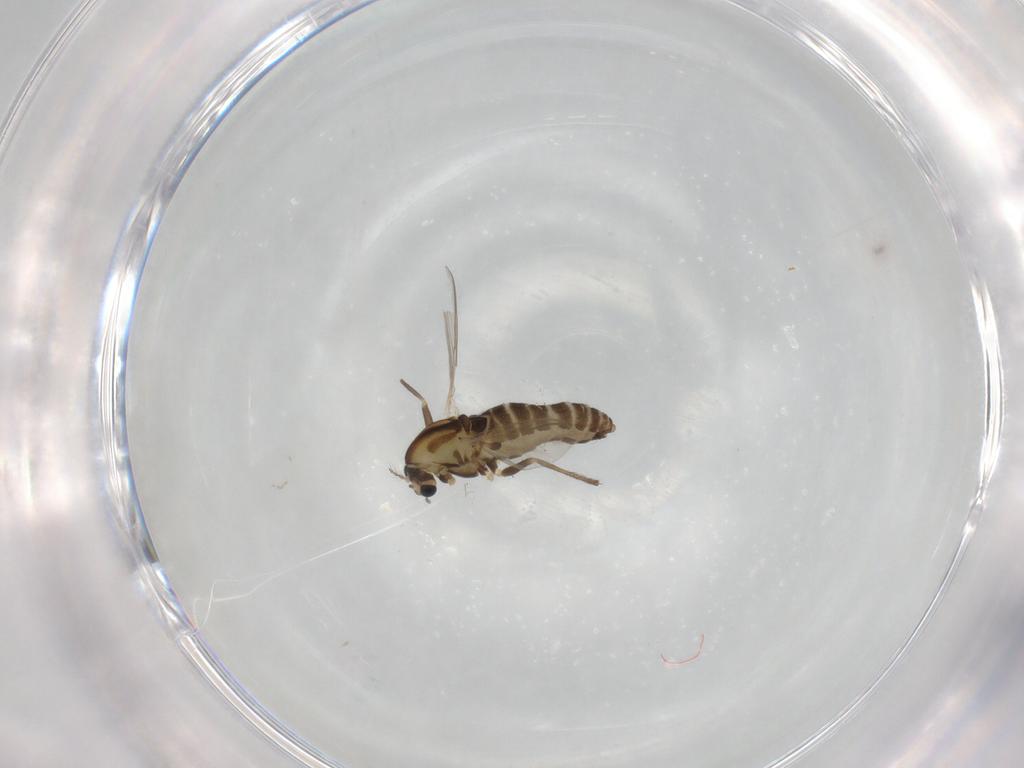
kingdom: Animalia
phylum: Arthropoda
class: Insecta
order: Diptera
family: Chironomidae
